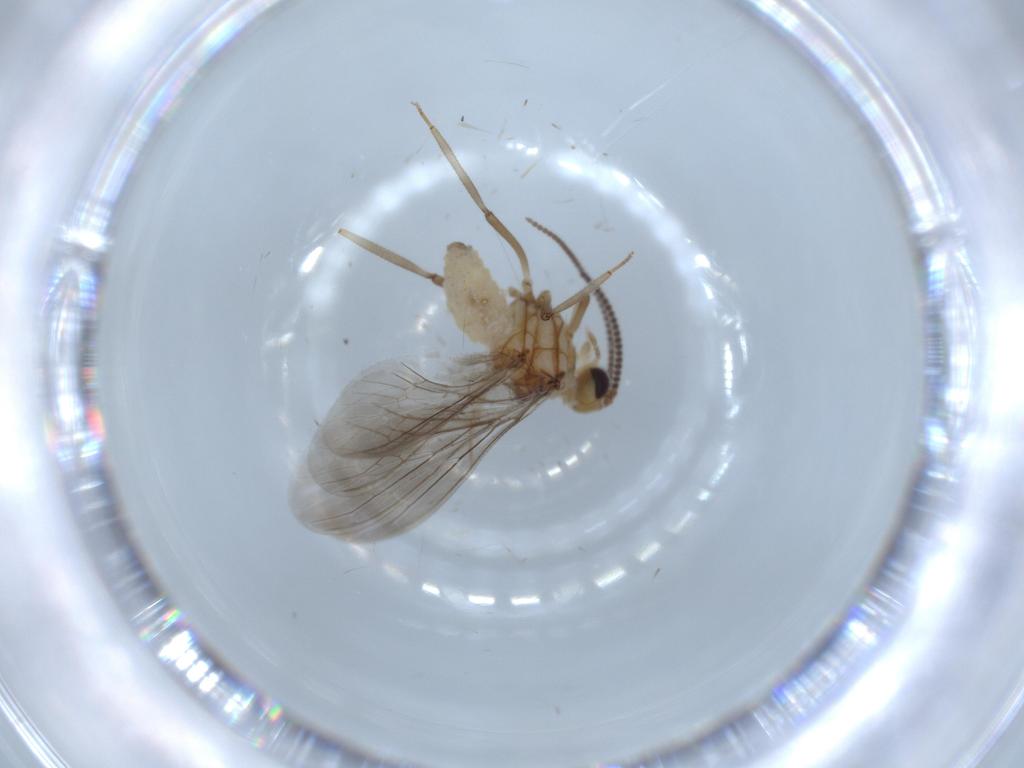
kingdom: Animalia
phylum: Arthropoda
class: Insecta
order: Neuroptera
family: Coniopterygidae
